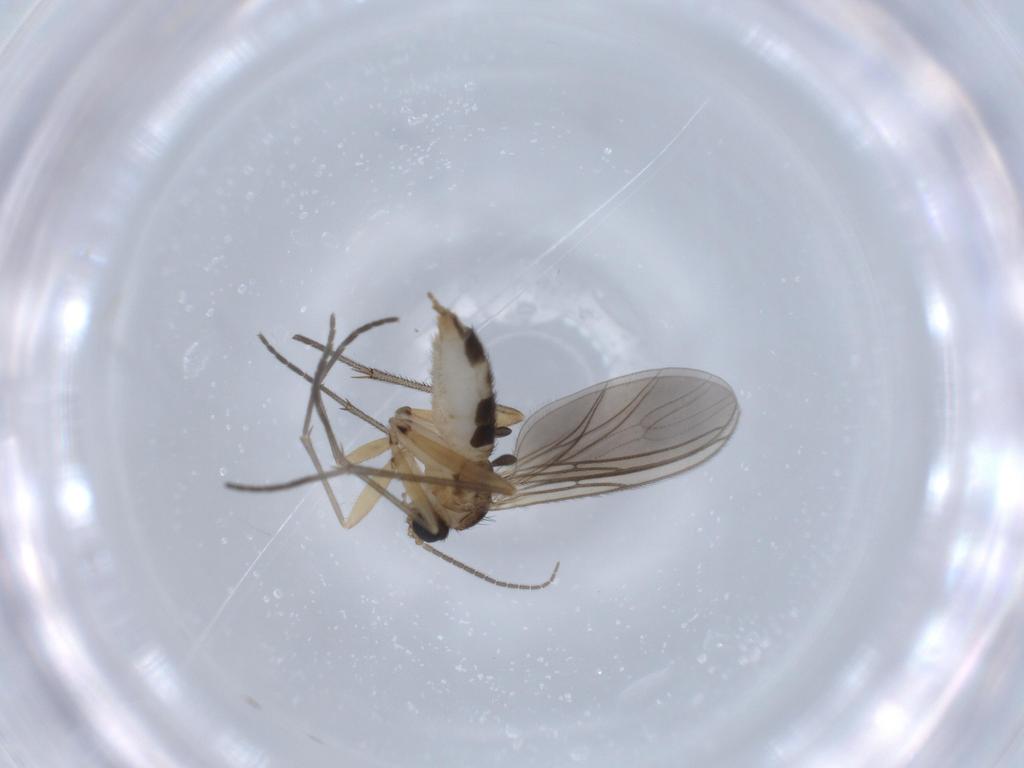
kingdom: Animalia
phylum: Arthropoda
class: Insecta
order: Diptera
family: Sciaridae
